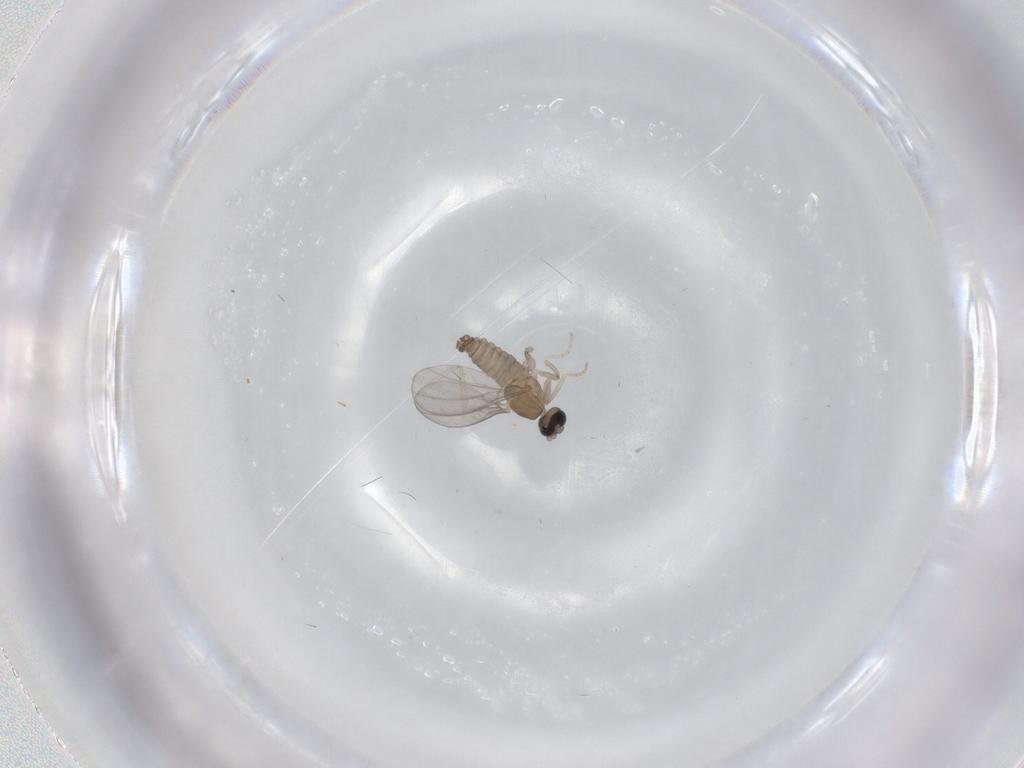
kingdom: Animalia
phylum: Arthropoda
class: Insecta
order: Diptera
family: Cecidomyiidae
